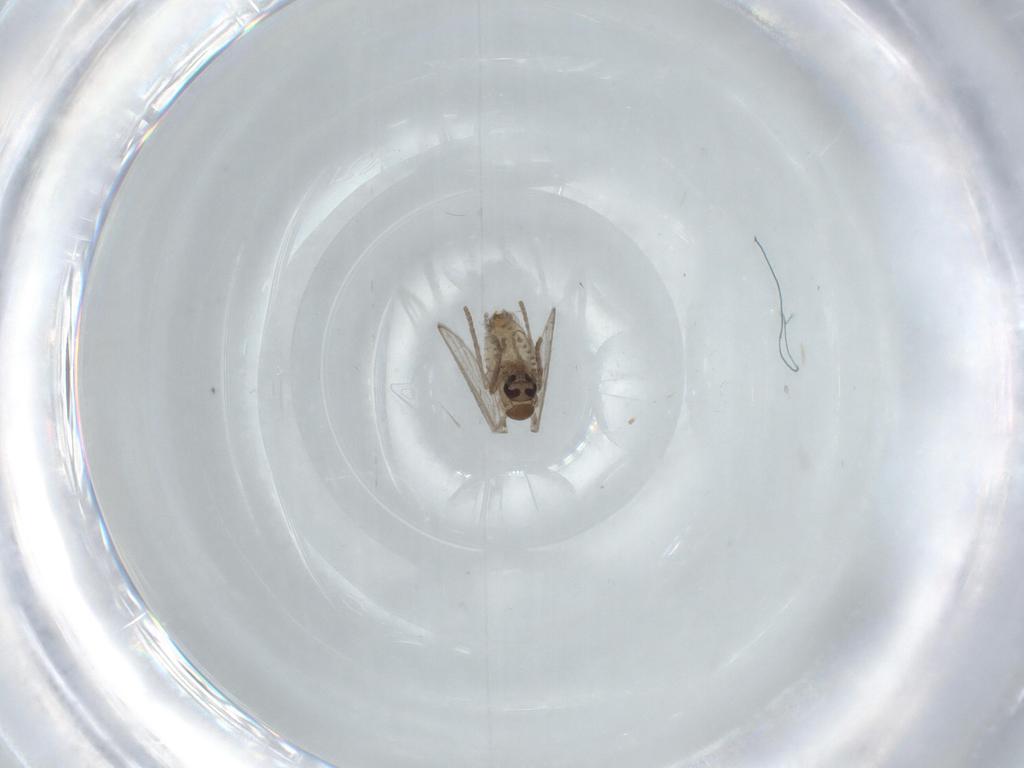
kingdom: Animalia
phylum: Arthropoda
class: Insecta
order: Diptera
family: Psychodidae
